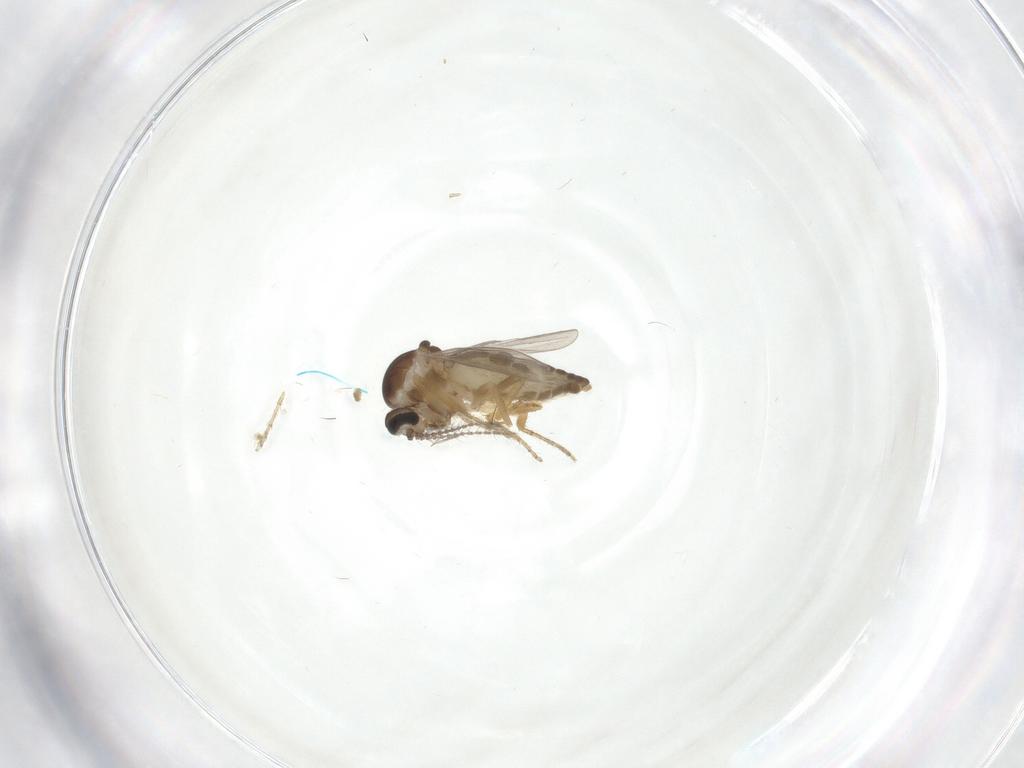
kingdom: Animalia
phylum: Arthropoda
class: Insecta
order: Diptera
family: Ceratopogonidae
